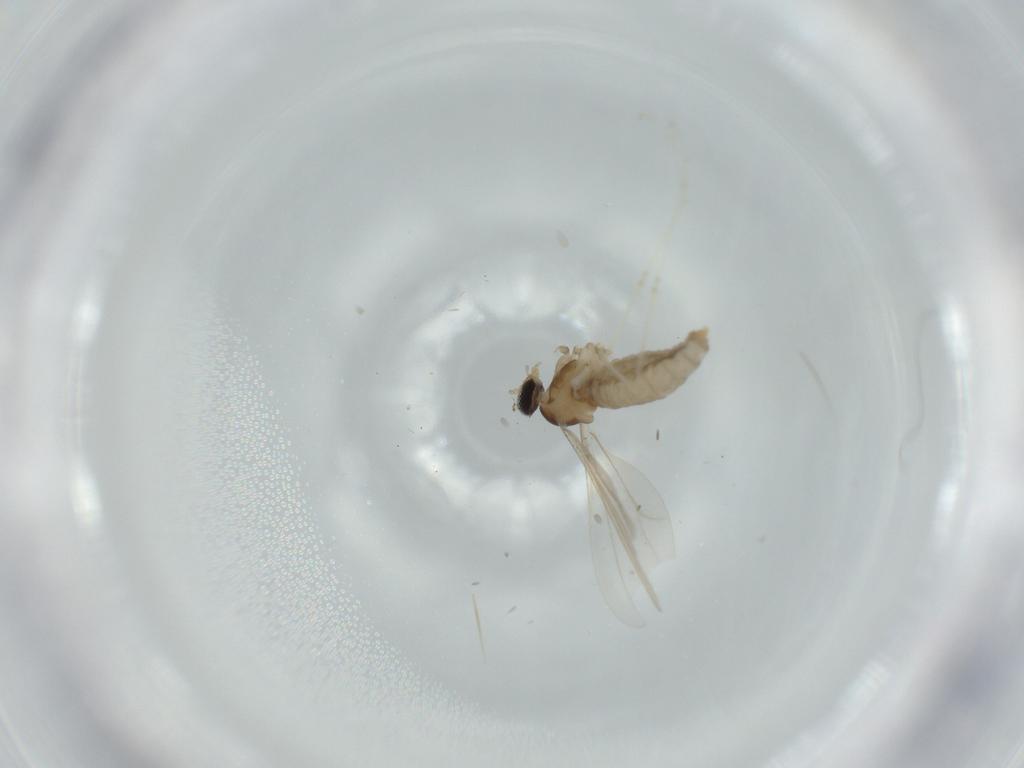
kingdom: Animalia
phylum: Arthropoda
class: Insecta
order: Diptera
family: Cecidomyiidae
